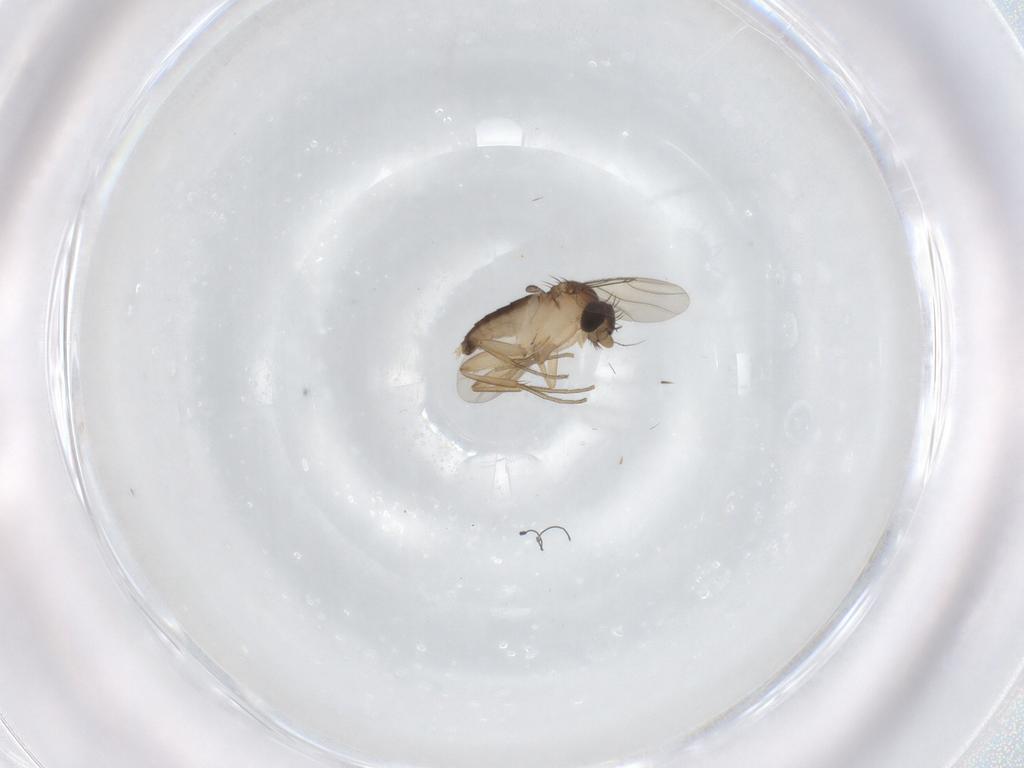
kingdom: Animalia
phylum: Arthropoda
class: Insecta
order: Diptera
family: Phoridae
